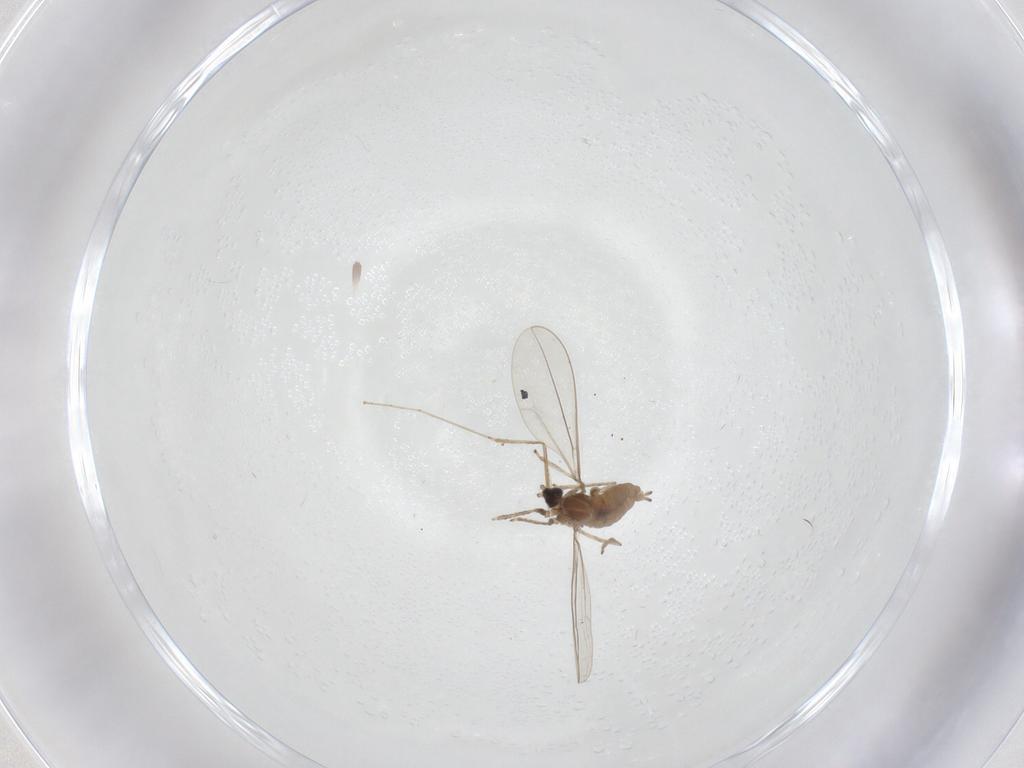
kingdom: Animalia
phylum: Arthropoda
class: Insecta
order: Diptera
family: Cecidomyiidae
